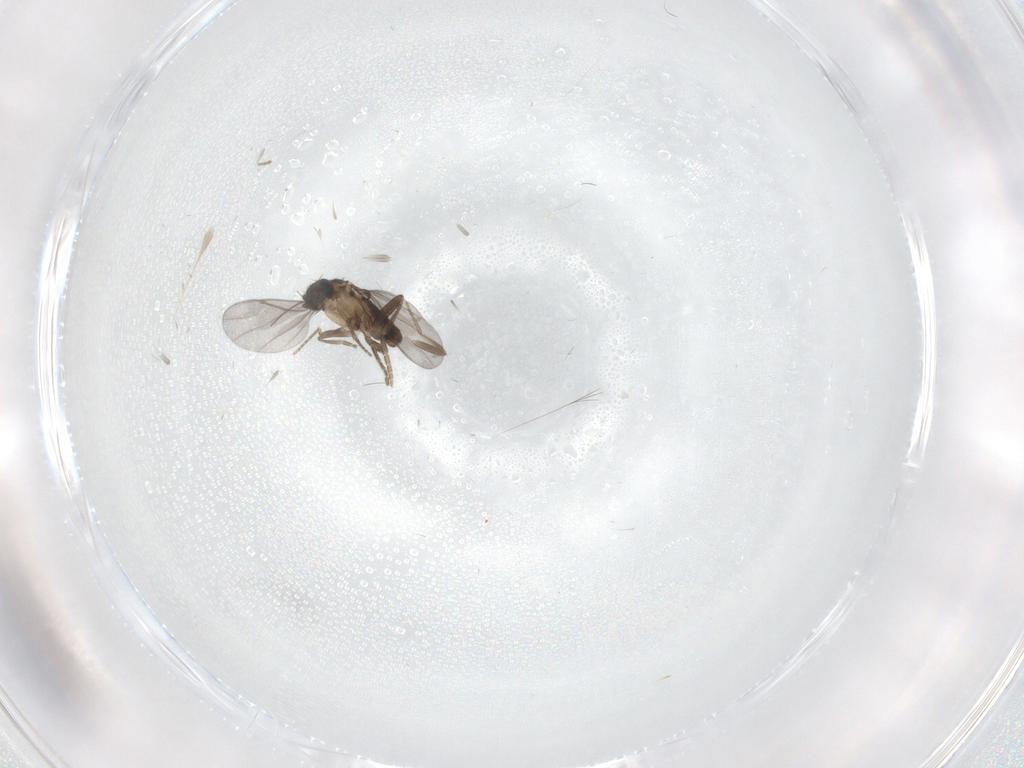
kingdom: Animalia
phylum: Arthropoda
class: Insecta
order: Diptera
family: Cecidomyiidae
